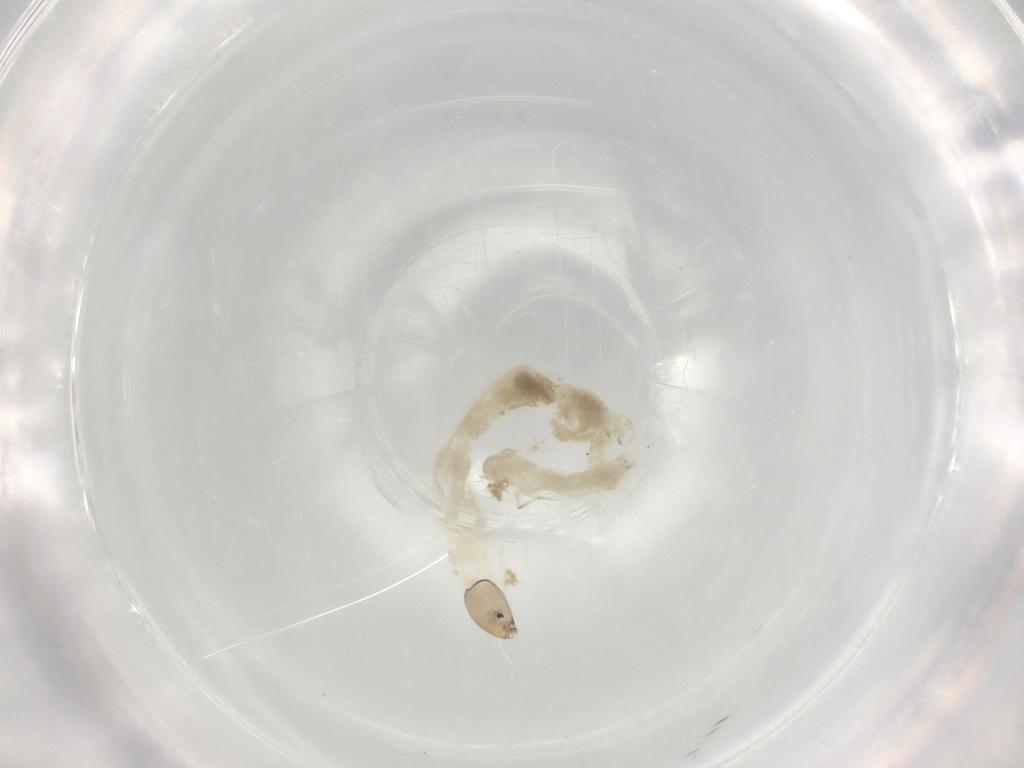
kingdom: Animalia
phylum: Arthropoda
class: Insecta
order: Diptera
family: Chironomidae
